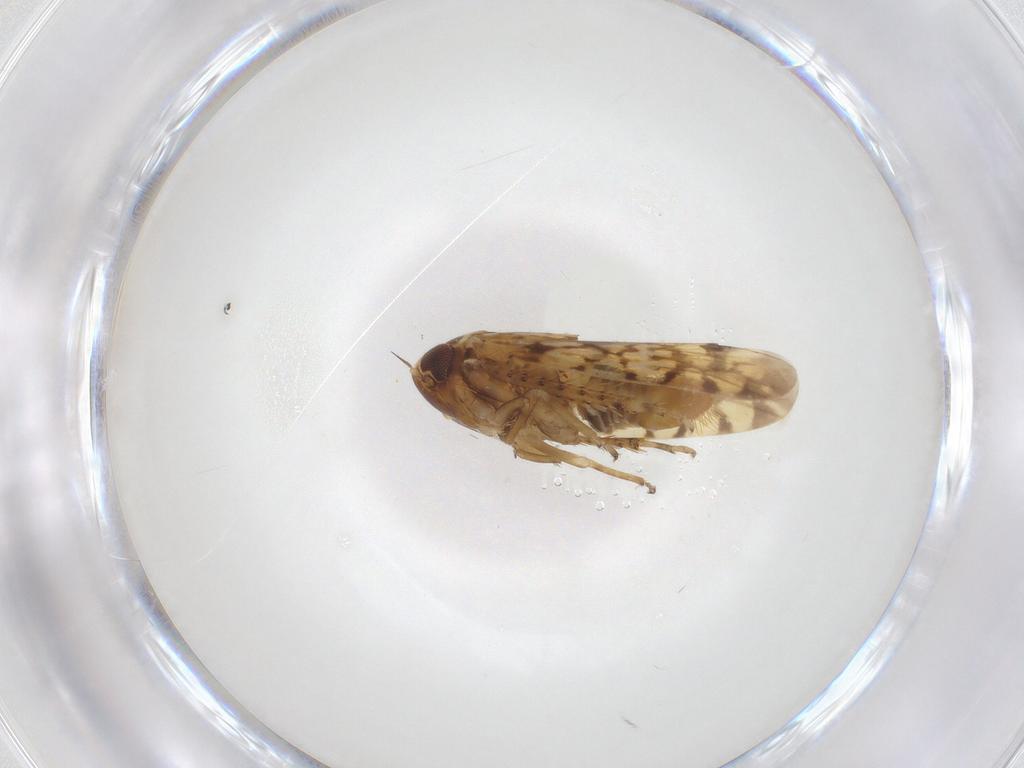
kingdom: Animalia
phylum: Arthropoda
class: Insecta
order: Hemiptera
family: Cicadellidae
